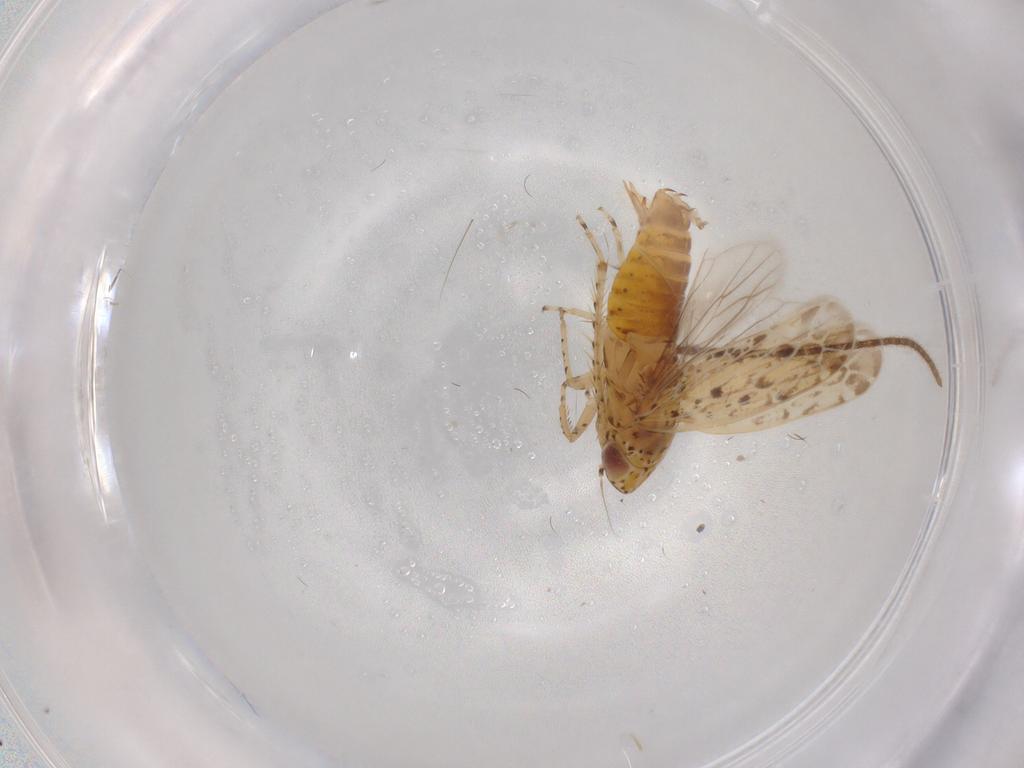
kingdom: Animalia
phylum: Arthropoda
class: Insecta
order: Hemiptera
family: Cicadellidae
